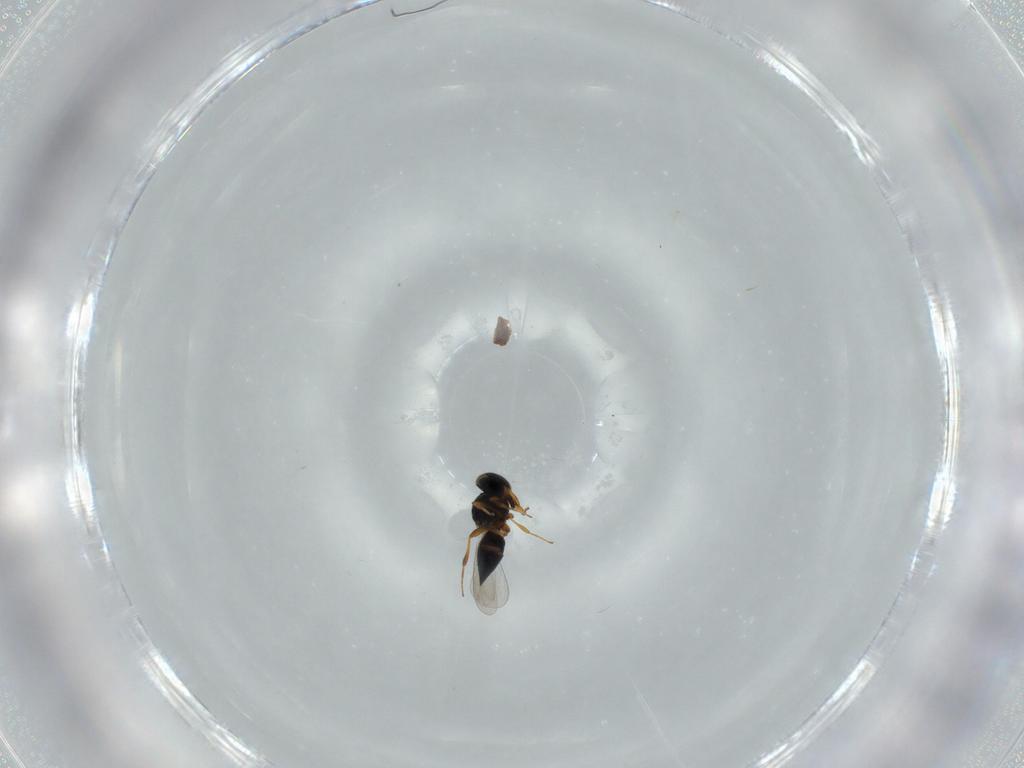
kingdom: Animalia
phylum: Arthropoda
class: Insecta
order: Hymenoptera
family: Platygastridae
